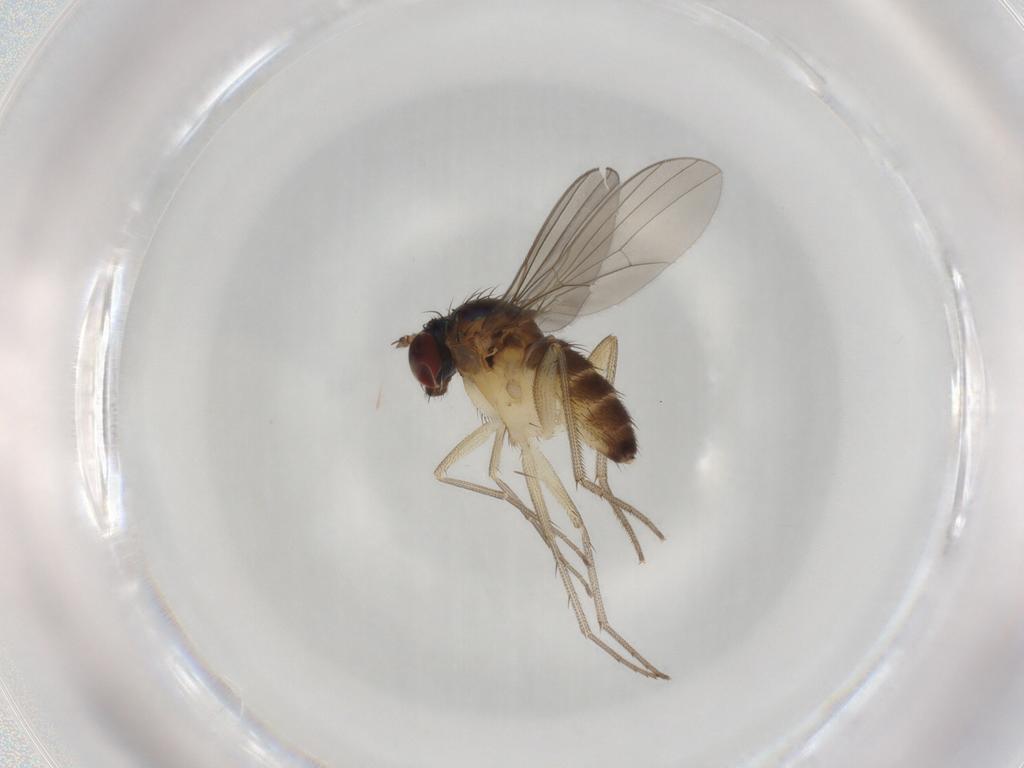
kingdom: Animalia
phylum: Arthropoda
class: Insecta
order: Diptera
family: Dolichopodidae
